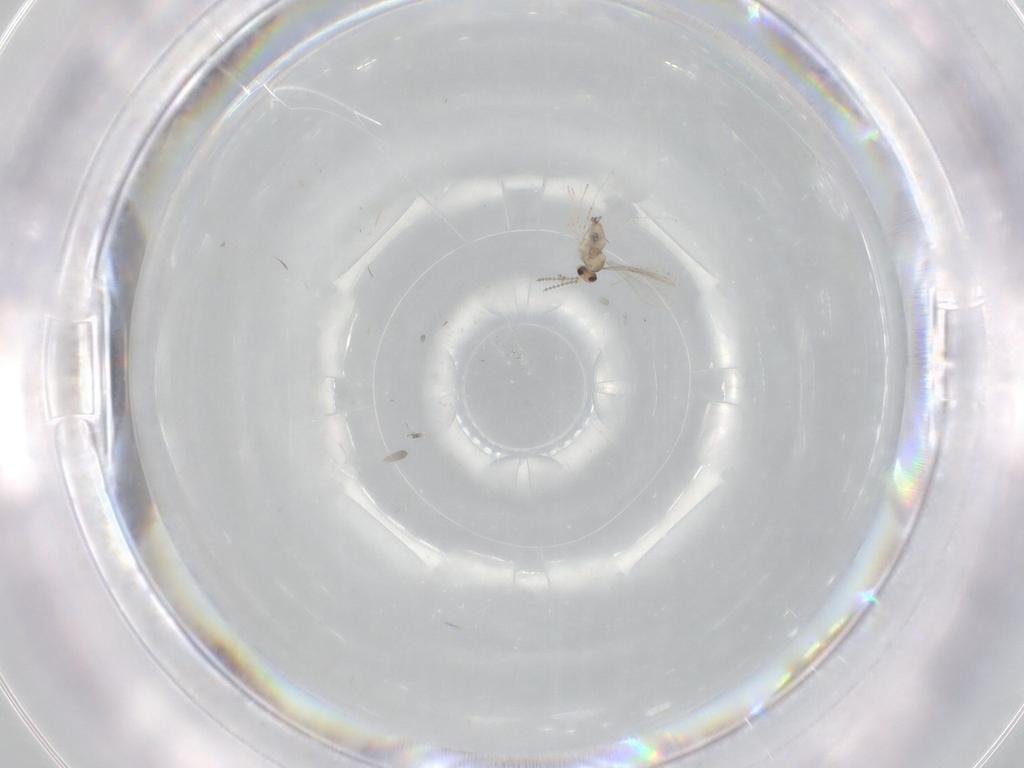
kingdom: Animalia
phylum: Arthropoda
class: Insecta
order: Diptera
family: Cecidomyiidae
